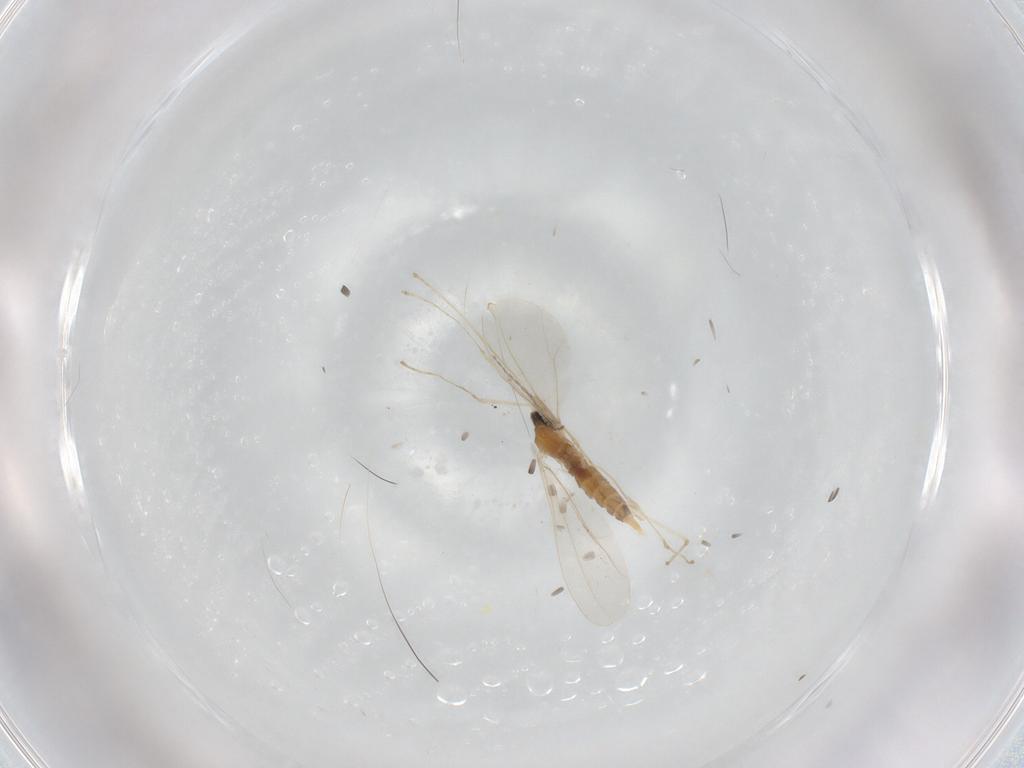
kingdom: Animalia
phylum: Arthropoda
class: Insecta
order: Diptera
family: Cecidomyiidae
